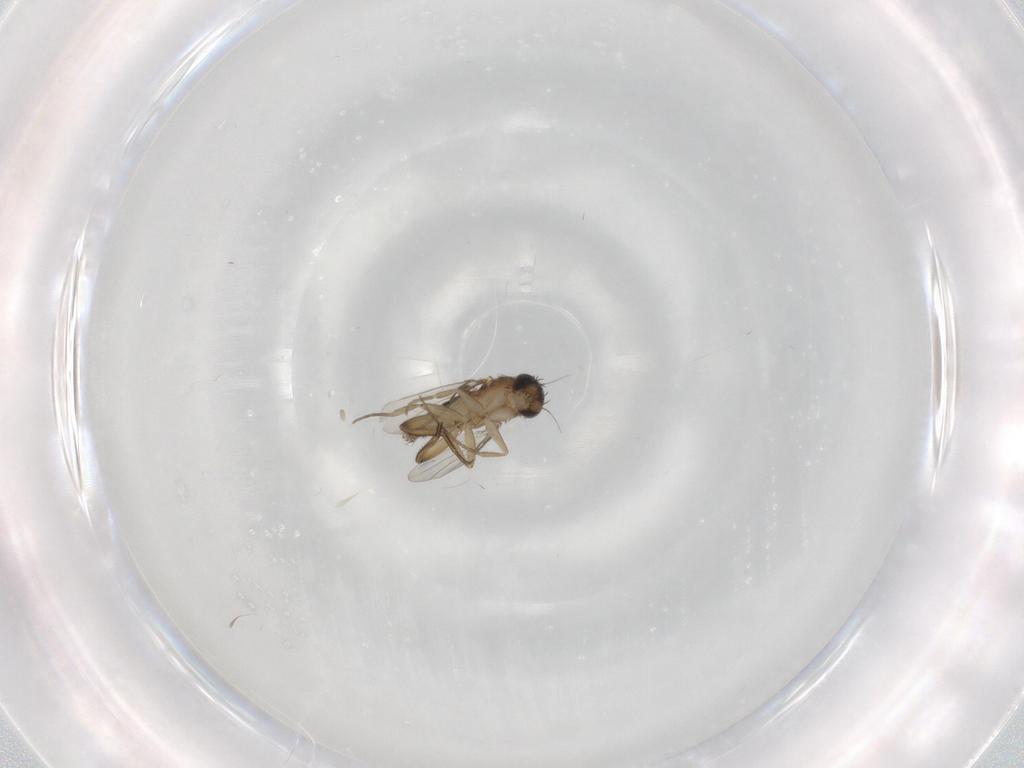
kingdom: Animalia
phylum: Arthropoda
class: Insecta
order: Diptera
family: Phoridae
